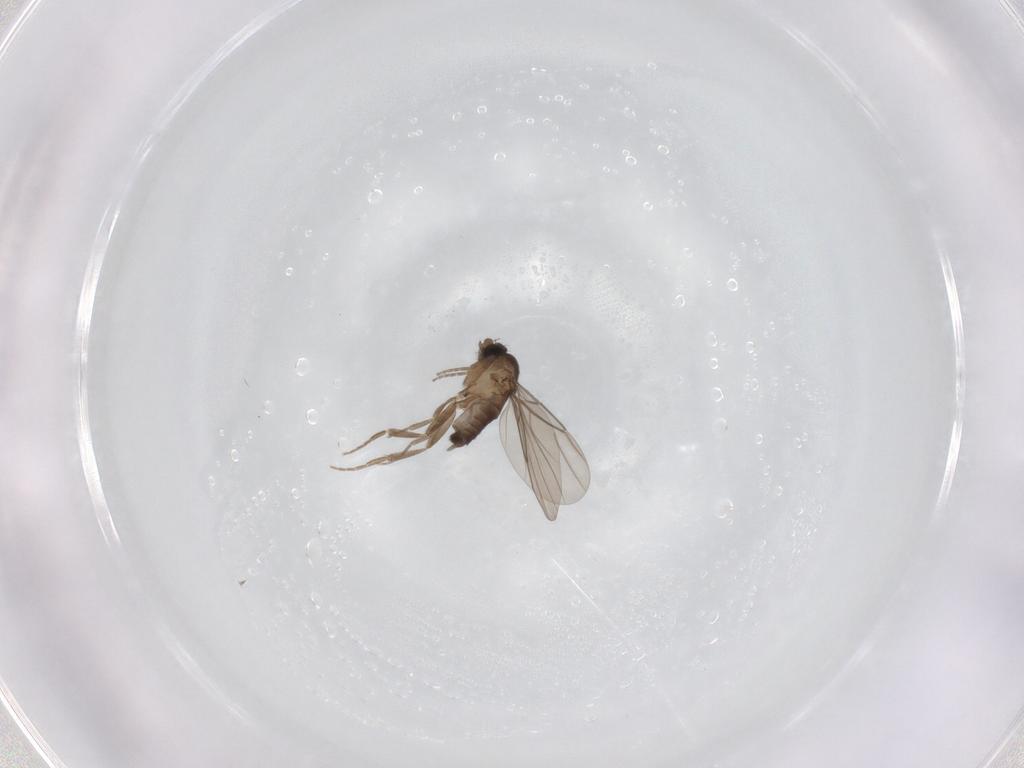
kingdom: Animalia
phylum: Arthropoda
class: Insecta
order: Diptera
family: Phoridae
